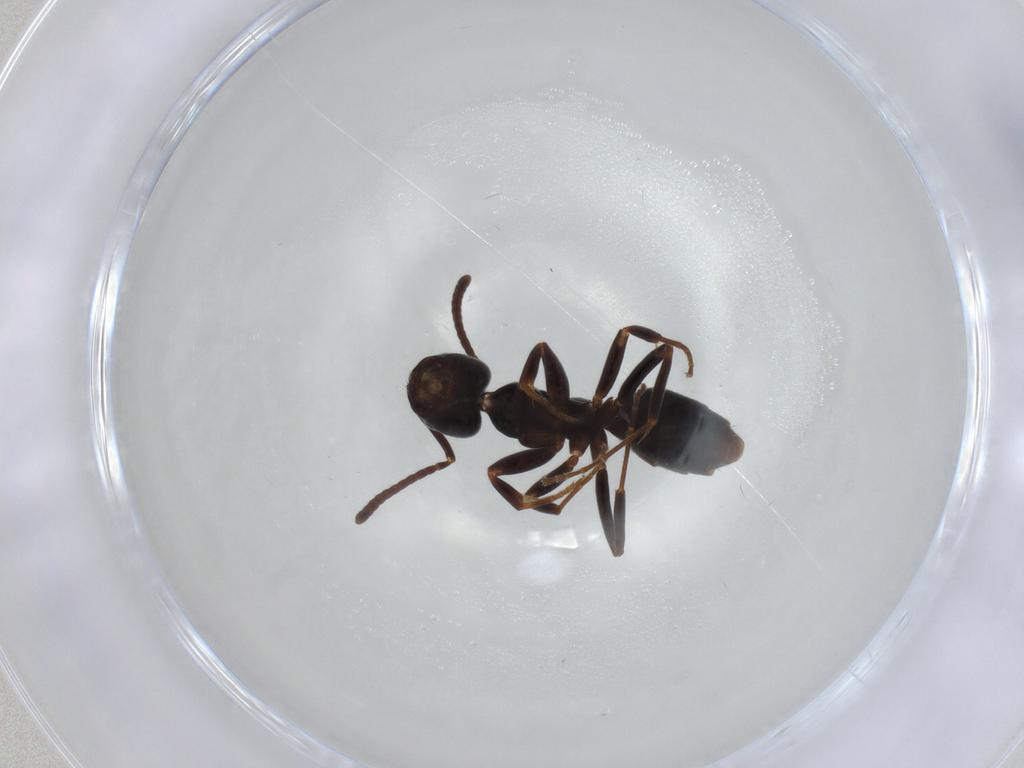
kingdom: Animalia
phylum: Arthropoda
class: Insecta
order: Hymenoptera
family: Formicidae
